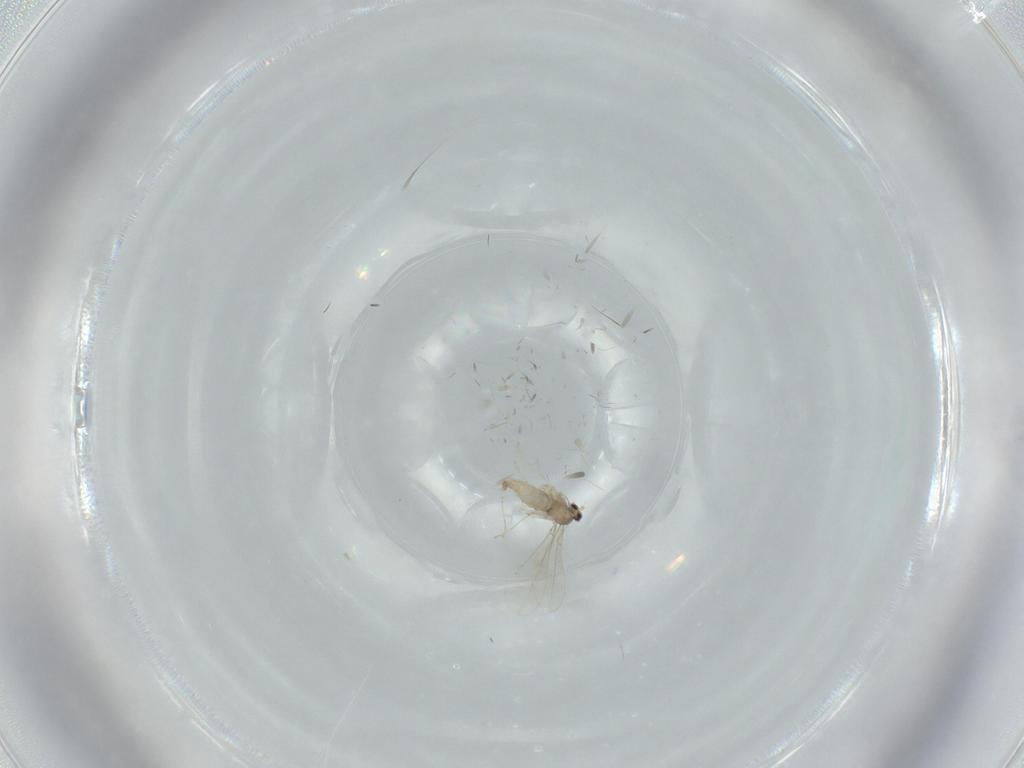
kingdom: Animalia
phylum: Arthropoda
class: Insecta
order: Diptera
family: Cecidomyiidae
